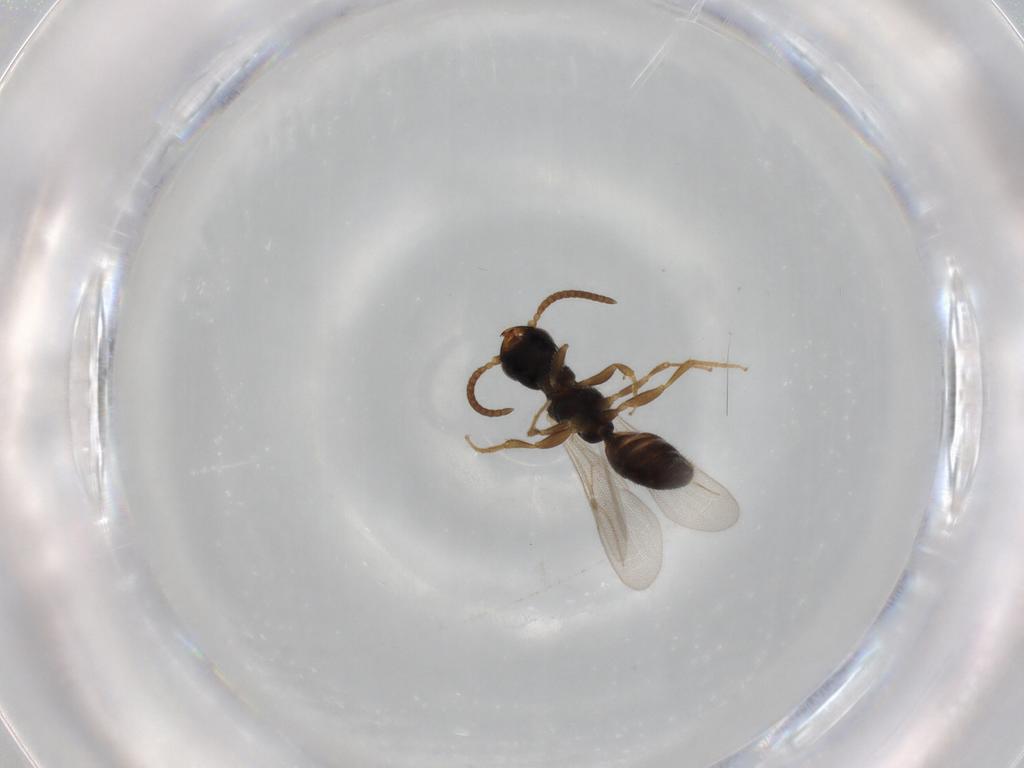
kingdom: Animalia
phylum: Arthropoda
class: Insecta
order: Hymenoptera
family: Bethylidae
